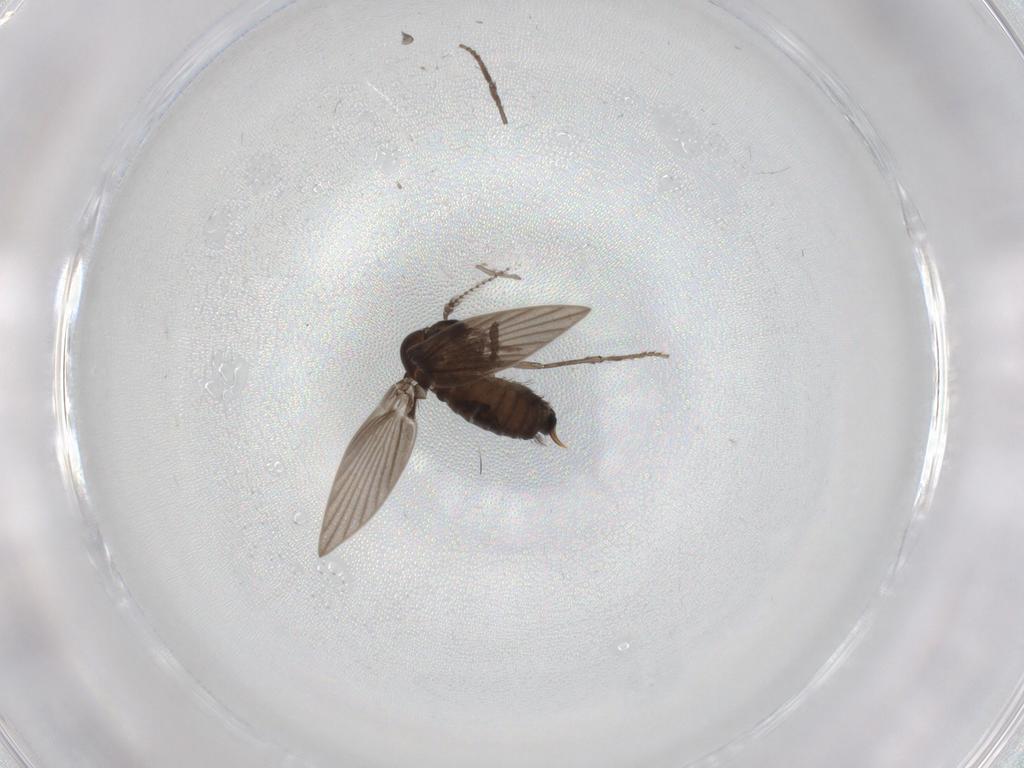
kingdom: Animalia
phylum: Arthropoda
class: Insecta
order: Diptera
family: Psychodidae
